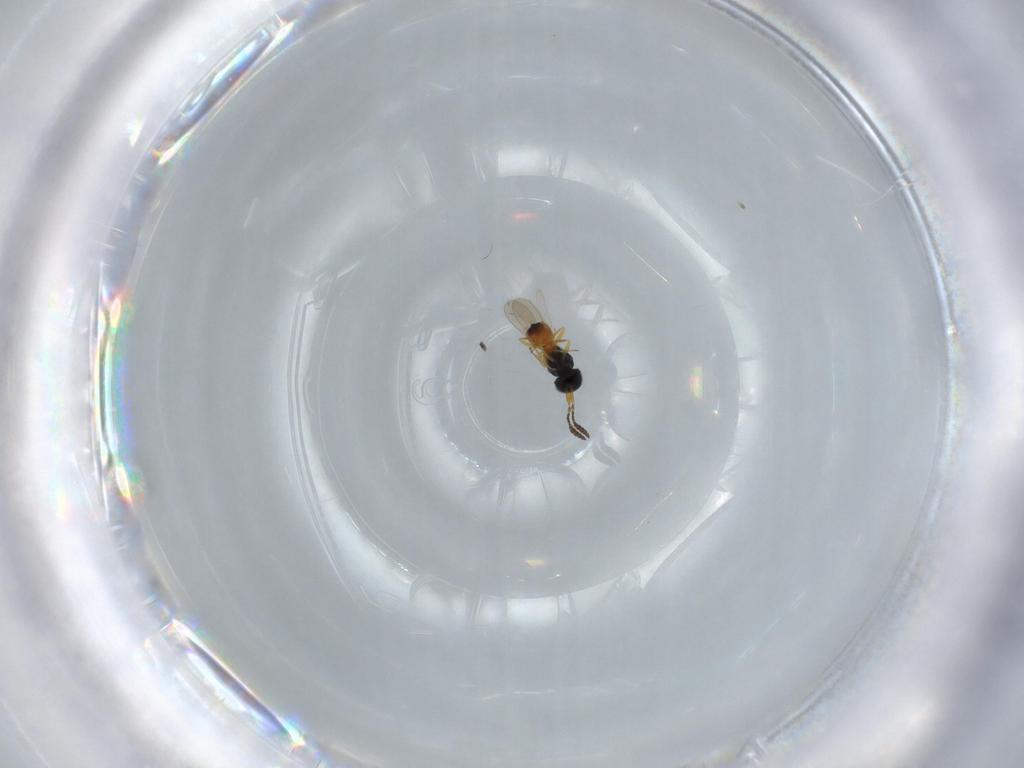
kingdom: Animalia
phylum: Arthropoda
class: Insecta
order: Hymenoptera
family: Scelionidae
